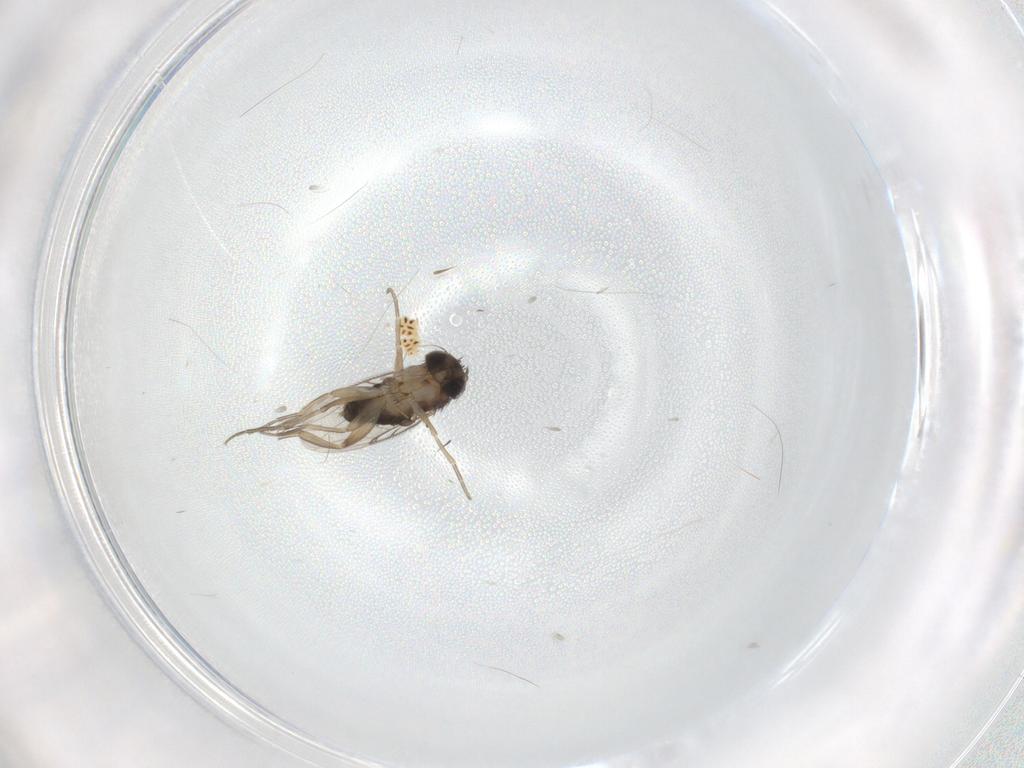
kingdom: Animalia
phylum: Arthropoda
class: Insecta
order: Diptera
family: Phoridae
